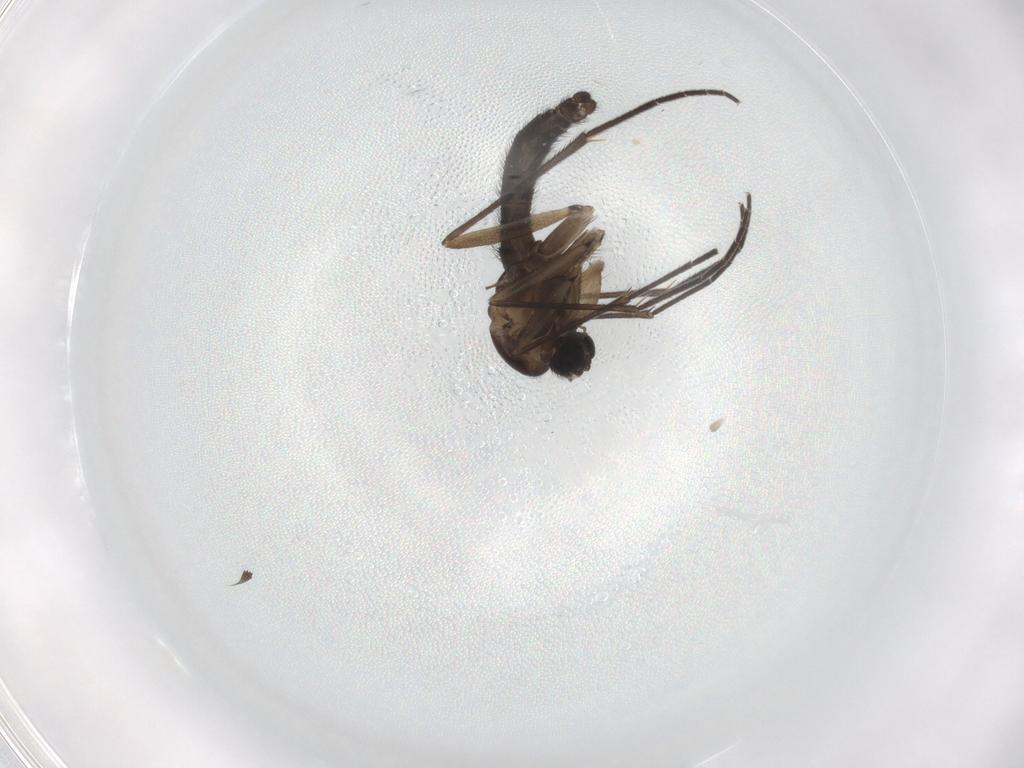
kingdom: Animalia
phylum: Arthropoda
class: Insecta
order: Diptera
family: Sciaridae
